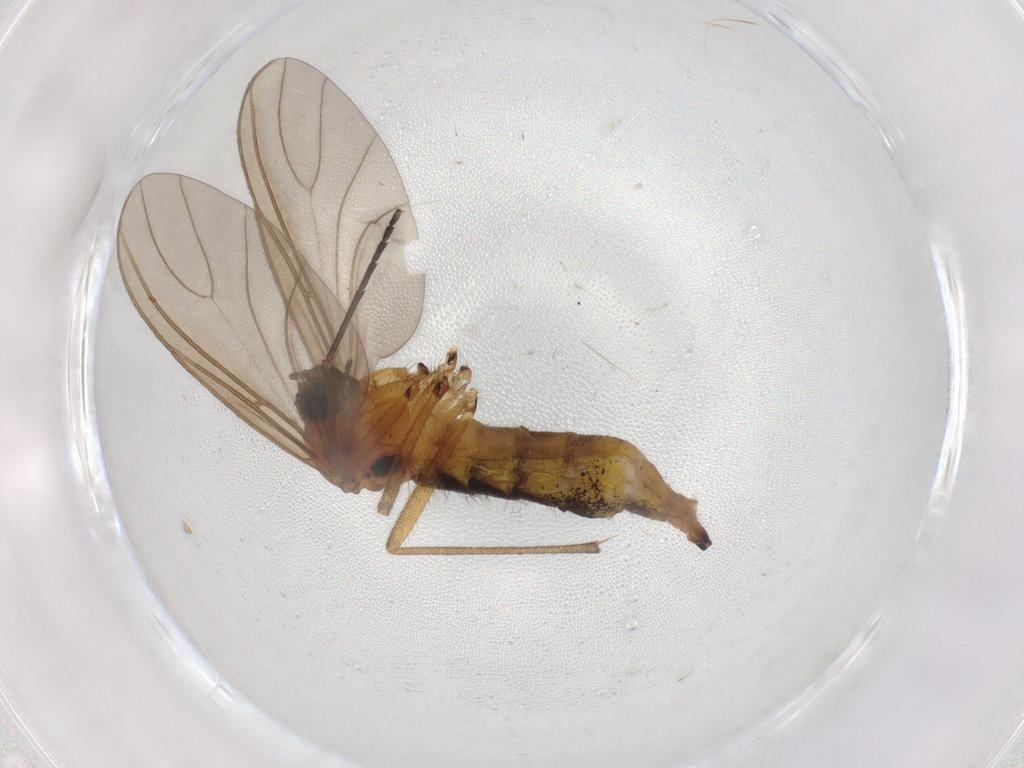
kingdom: Animalia
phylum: Arthropoda
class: Insecta
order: Diptera
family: Sciaridae
